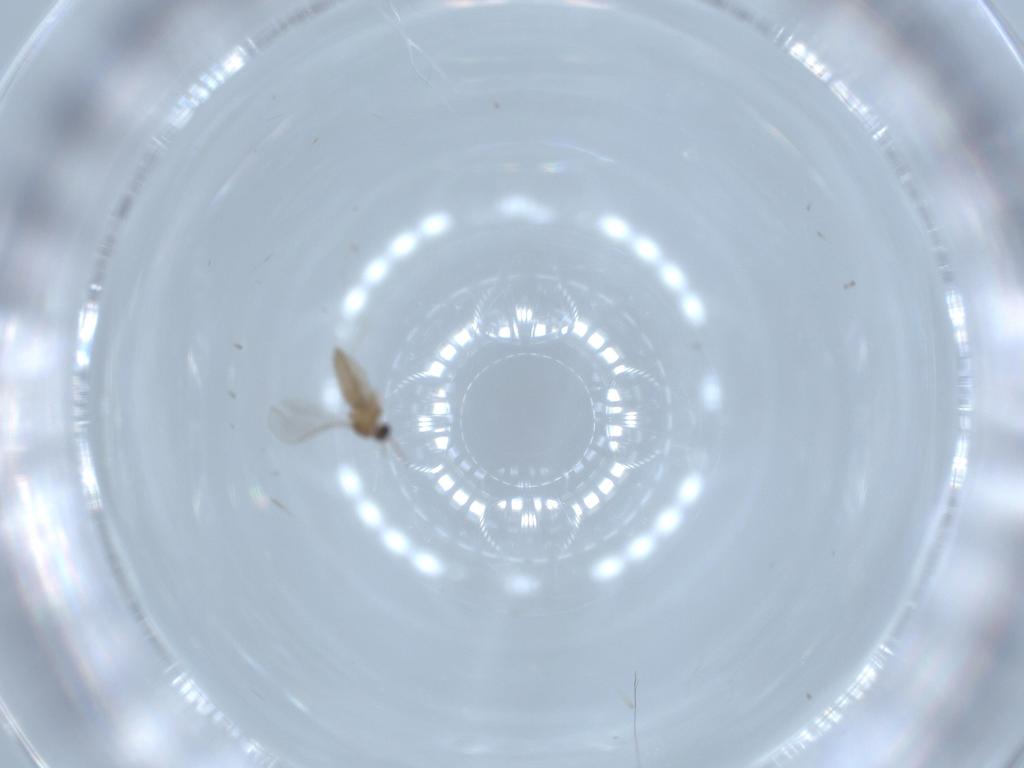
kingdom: Animalia
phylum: Arthropoda
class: Insecta
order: Diptera
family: Cecidomyiidae
